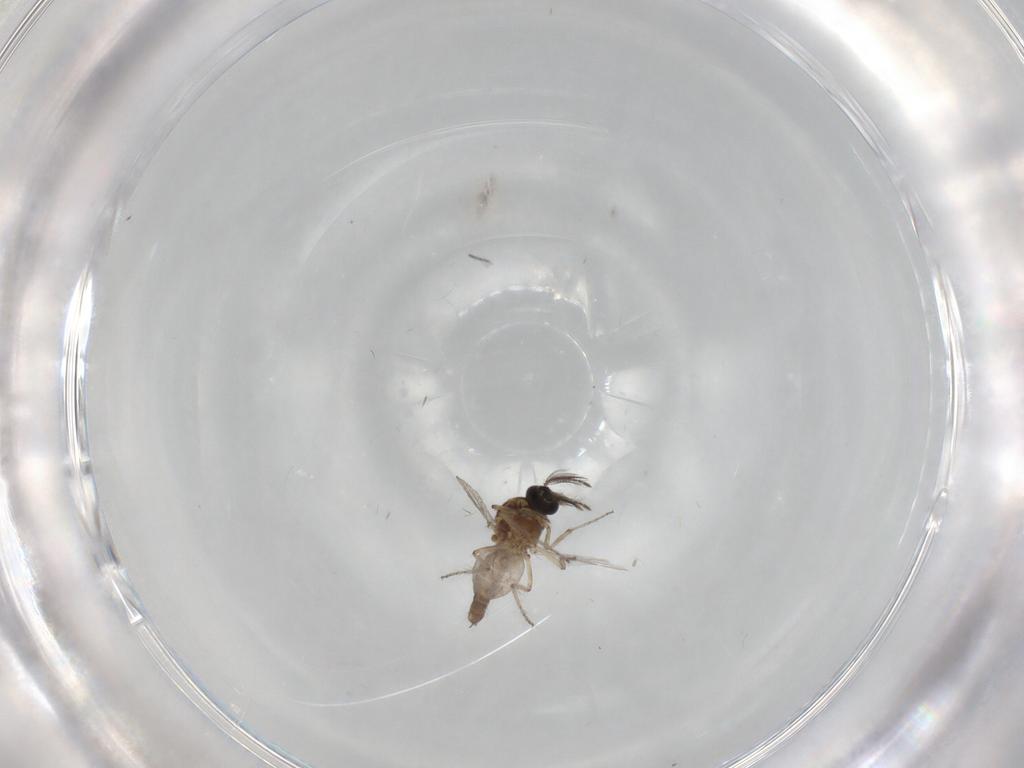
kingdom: Animalia
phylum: Arthropoda
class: Insecta
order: Diptera
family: Ceratopogonidae
